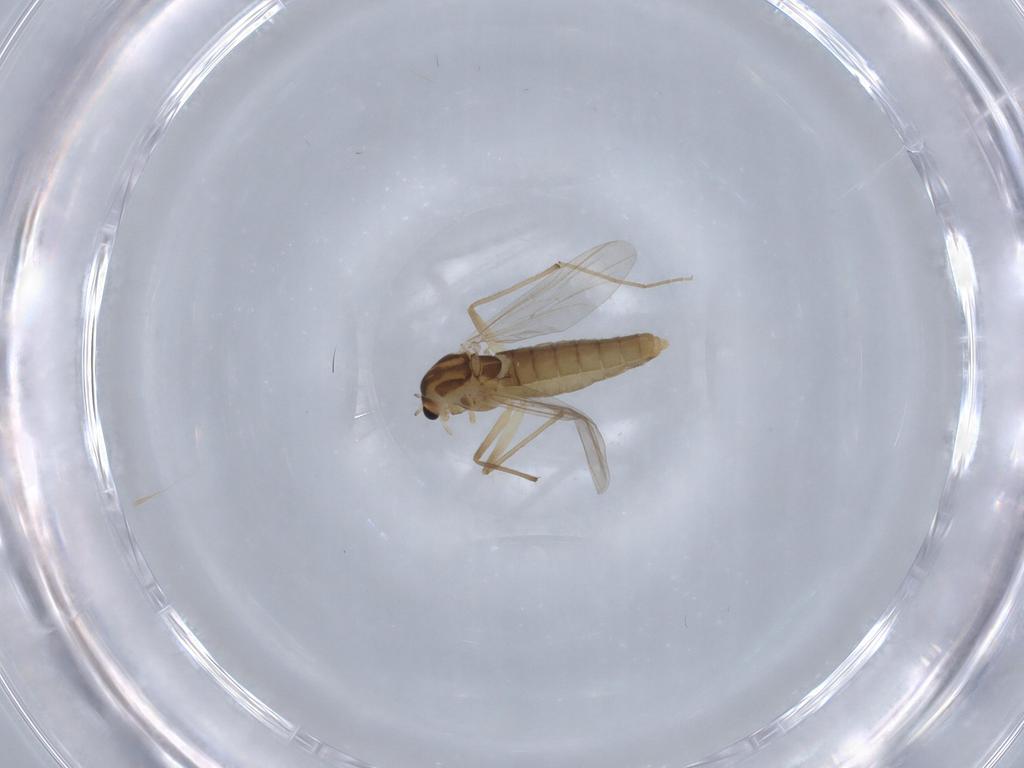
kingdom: Animalia
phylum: Arthropoda
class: Insecta
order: Diptera
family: Chironomidae
